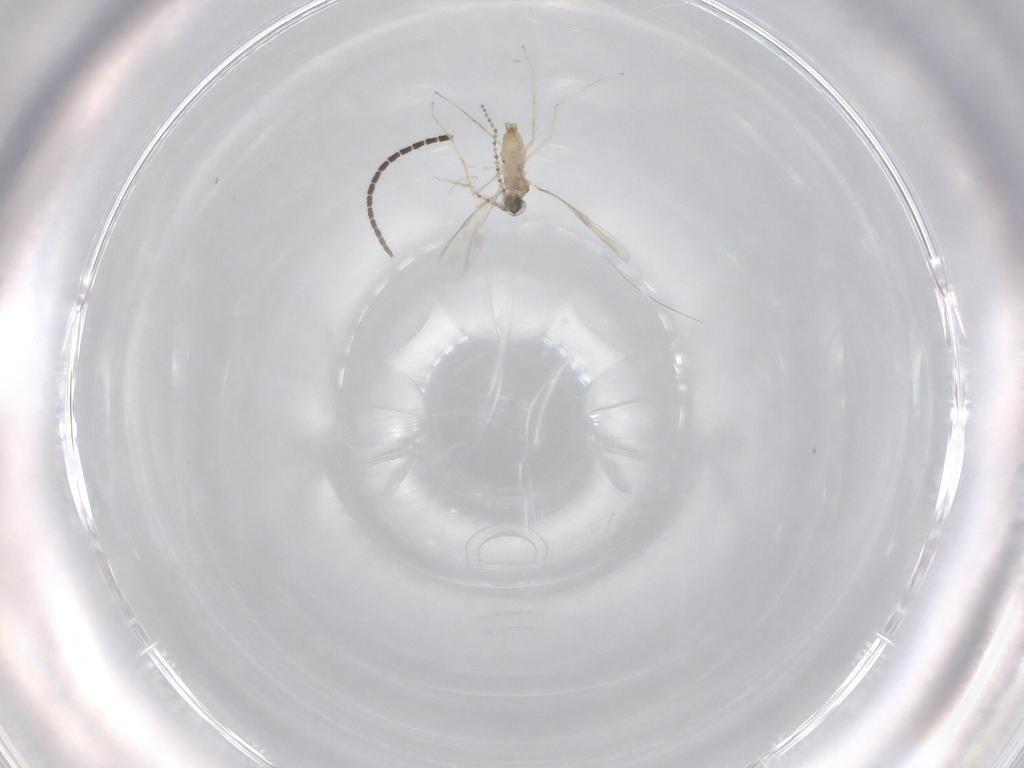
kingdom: Animalia
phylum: Arthropoda
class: Insecta
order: Diptera
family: Cecidomyiidae
